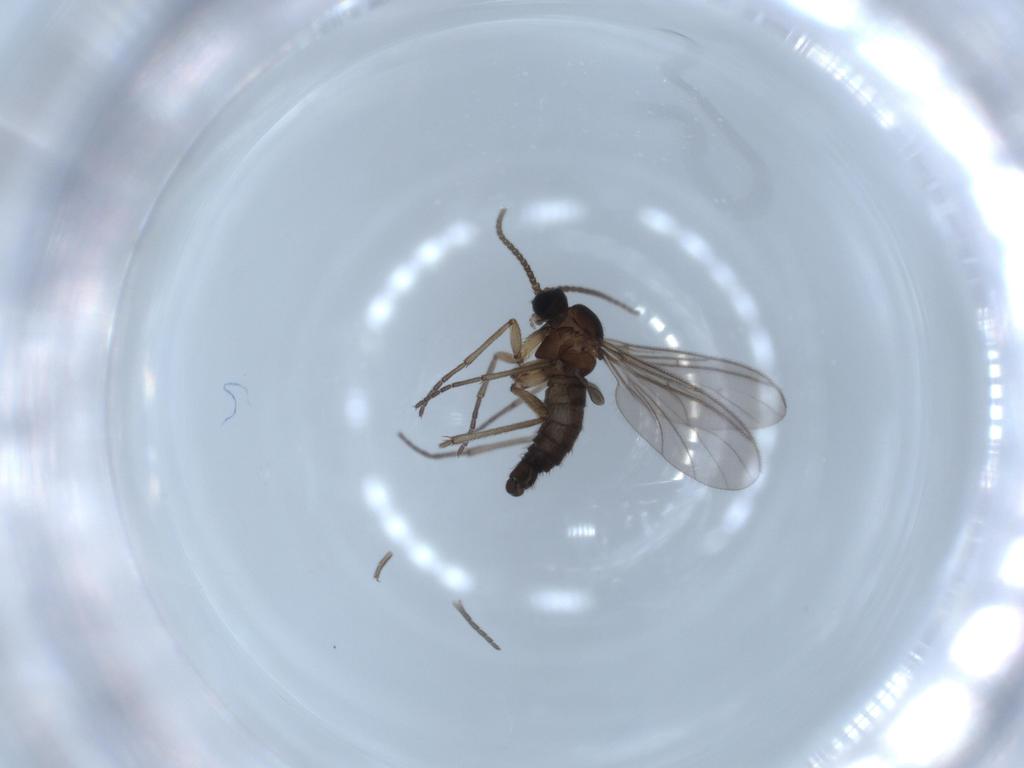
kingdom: Animalia
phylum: Arthropoda
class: Insecta
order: Diptera
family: Sciaridae
